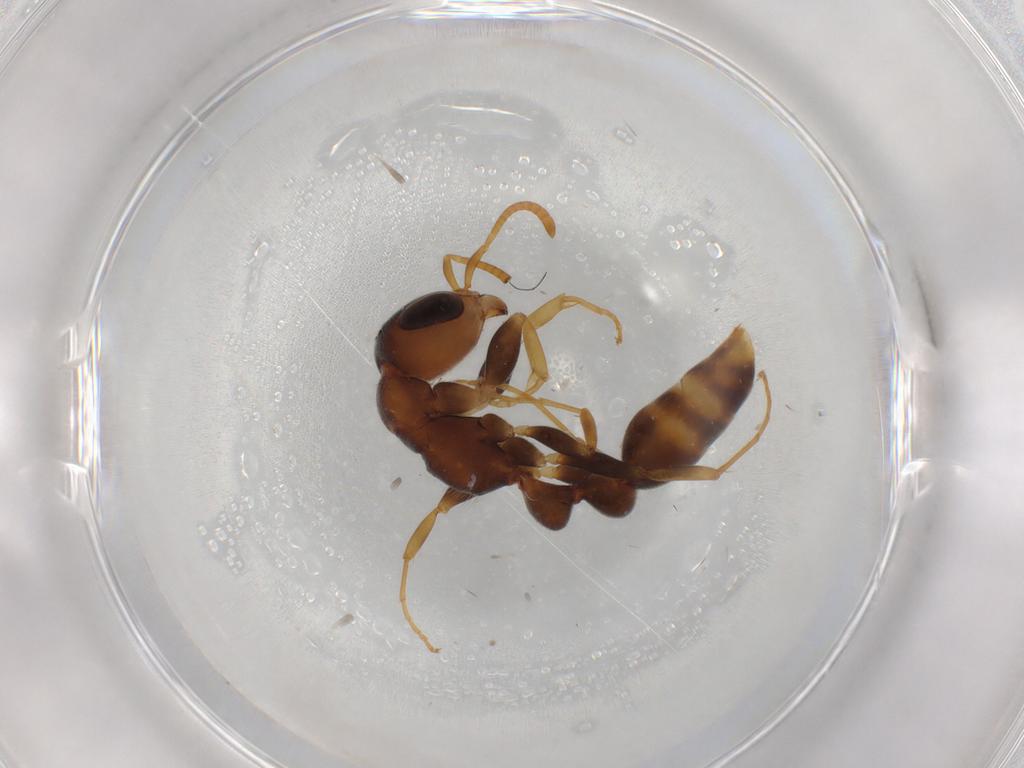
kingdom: Animalia
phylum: Arthropoda
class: Insecta
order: Hymenoptera
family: Formicidae
